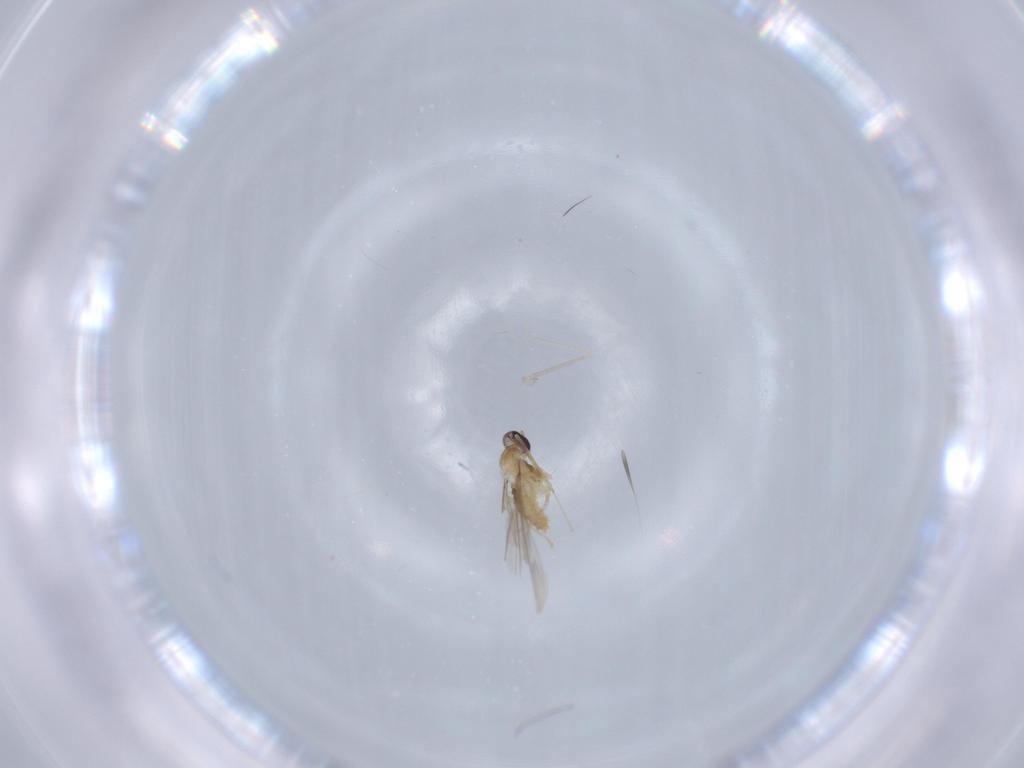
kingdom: Animalia
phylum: Arthropoda
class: Insecta
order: Diptera
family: Cecidomyiidae
